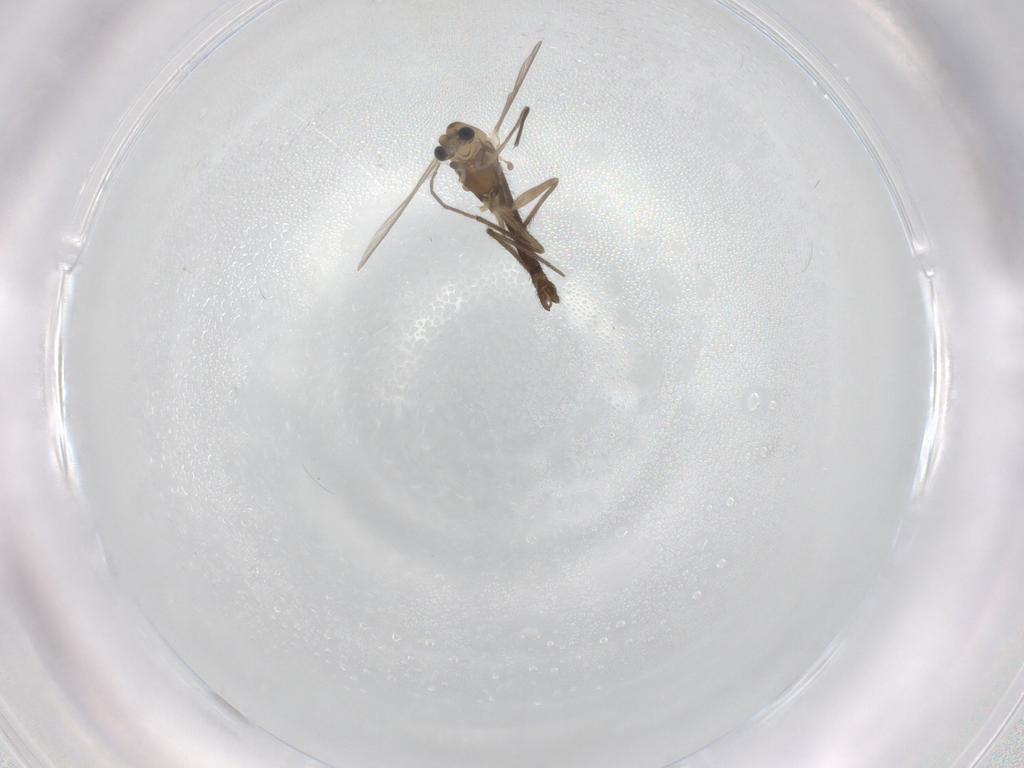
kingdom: Animalia
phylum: Arthropoda
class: Insecta
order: Diptera
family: Chironomidae
